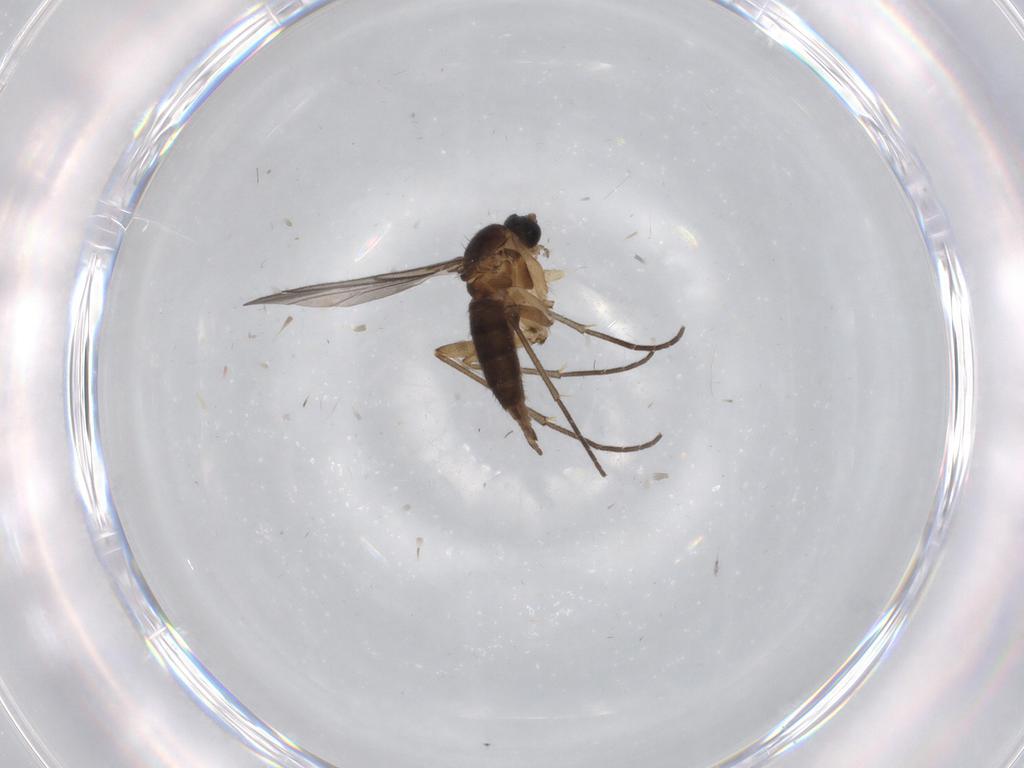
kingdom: Animalia
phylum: Arthropoda
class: Insecta
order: Diptera
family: Sciaridae
